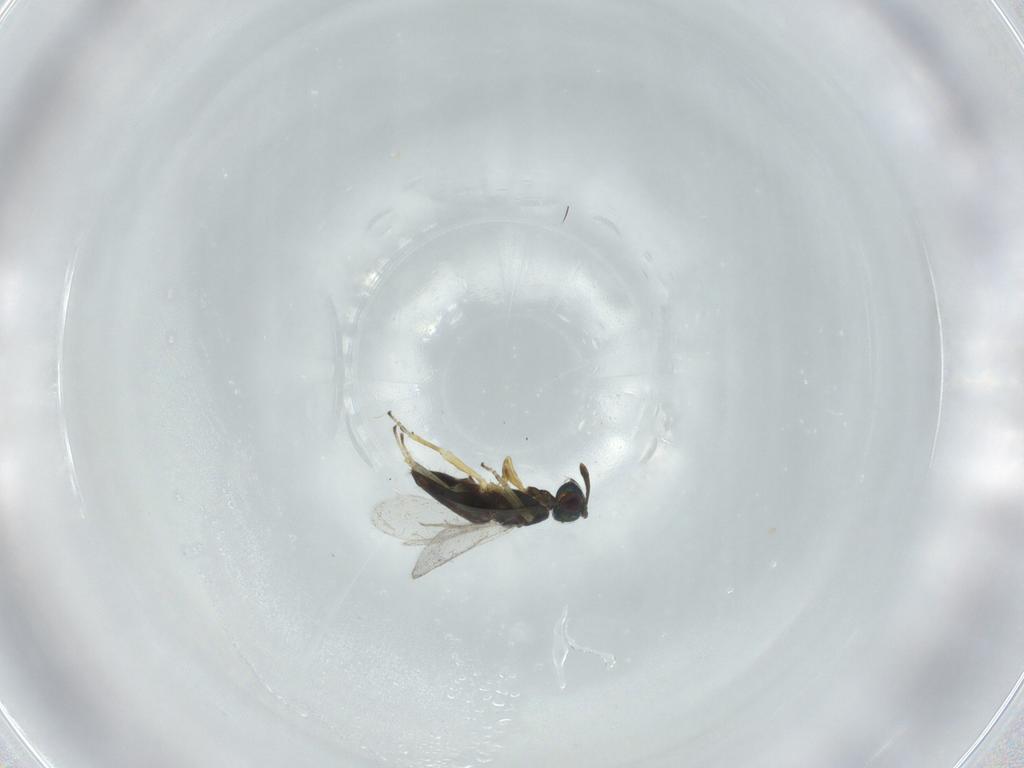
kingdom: Animalia
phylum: Arthropoda
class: Insecta
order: Hymenoptera
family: Eupelmidae
